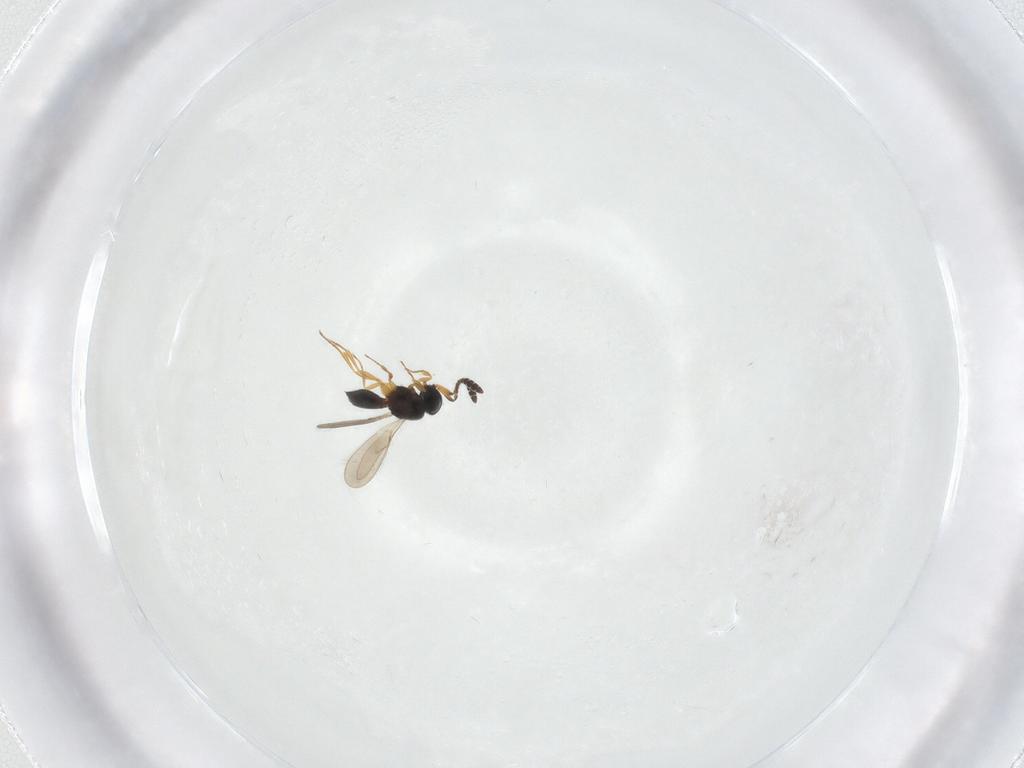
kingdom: Animalia
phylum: Arthropoda
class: Insecta
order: Hymenoptera
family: Scelionidae
